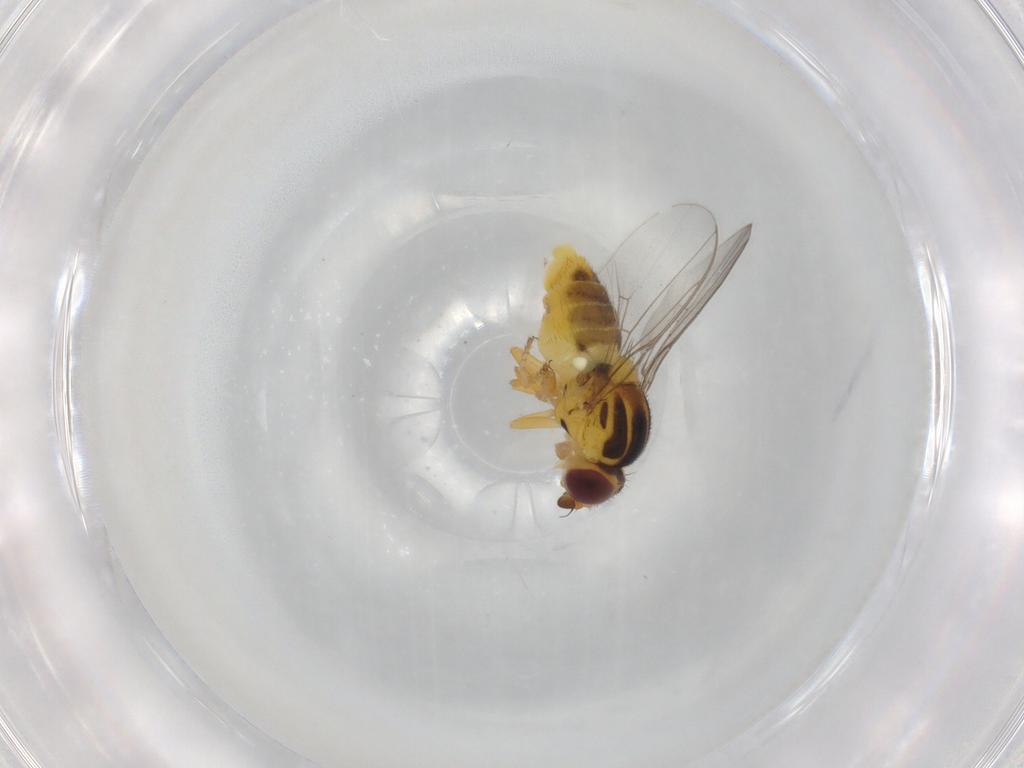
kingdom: Animalia
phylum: Arthropoda
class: Insecta
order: Diptera
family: Chloropidae
